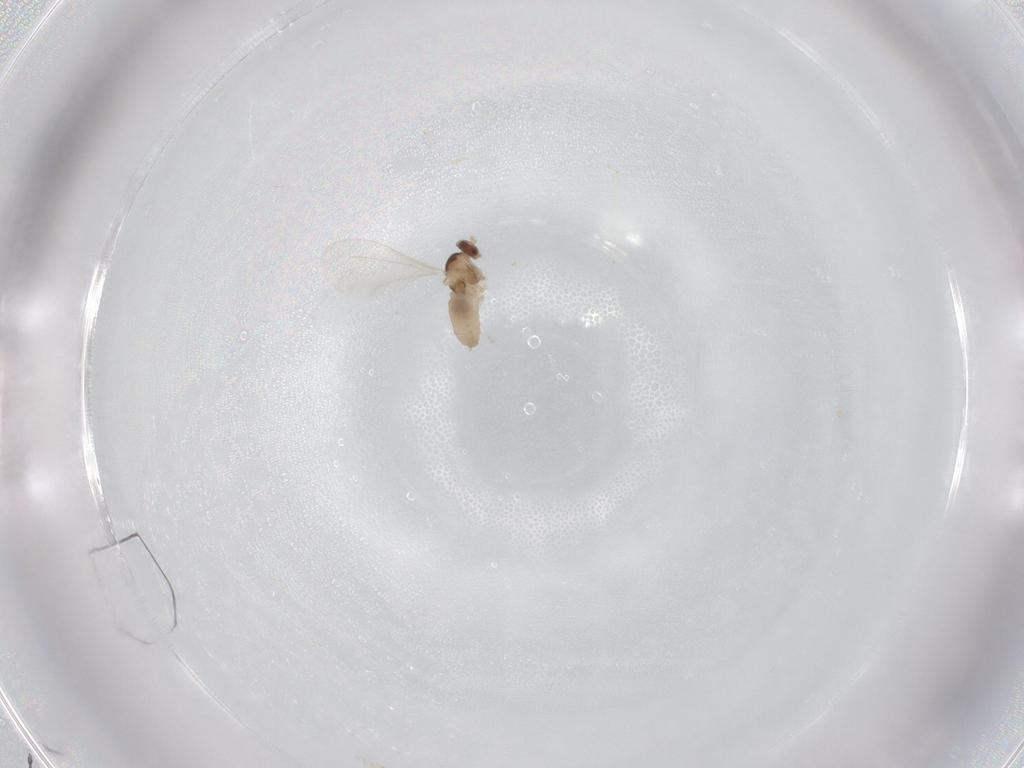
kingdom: Animalia
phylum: Arthropoda
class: Insecta
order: Diptera
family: Cecidomyiidae
